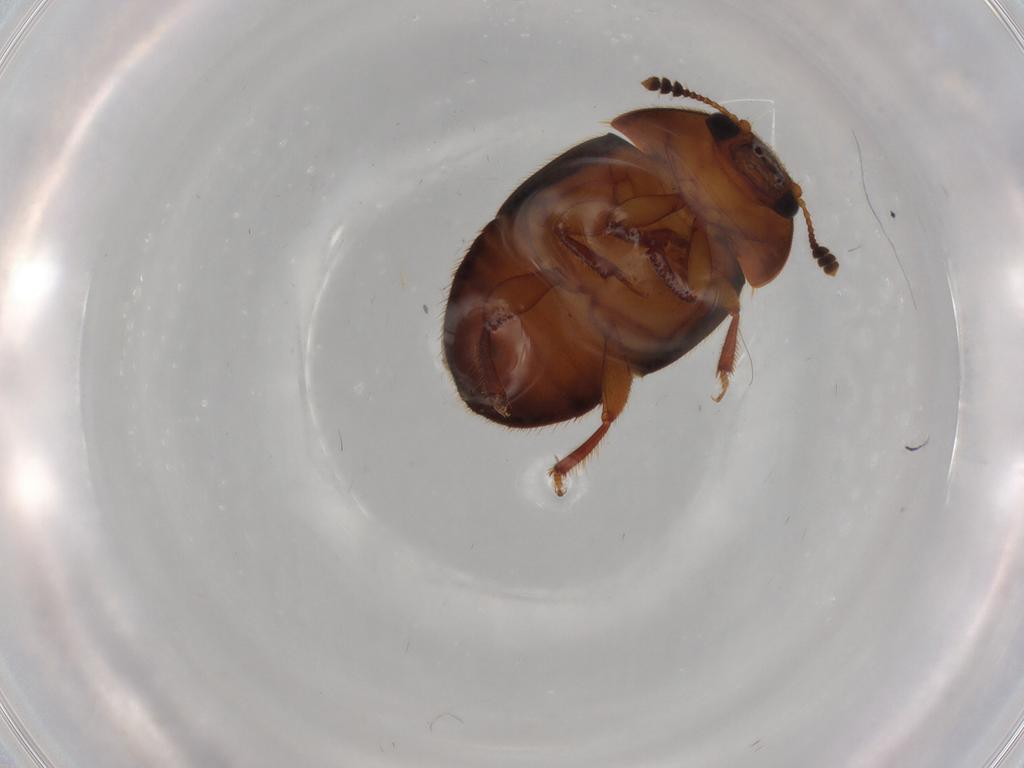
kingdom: Animalia
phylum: Arthropoda
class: Insecta
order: Coleoptera
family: Nitidulidae
